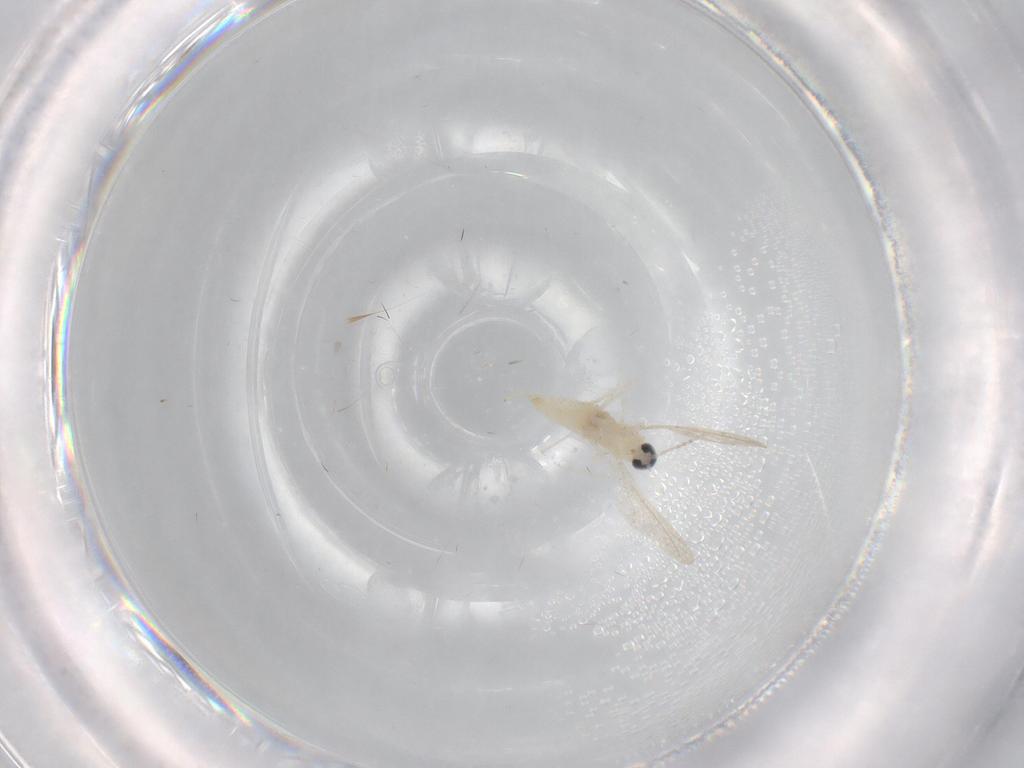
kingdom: Animalia
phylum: Arthropoda
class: Insecta
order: Diptera
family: Cecidomyiidae
